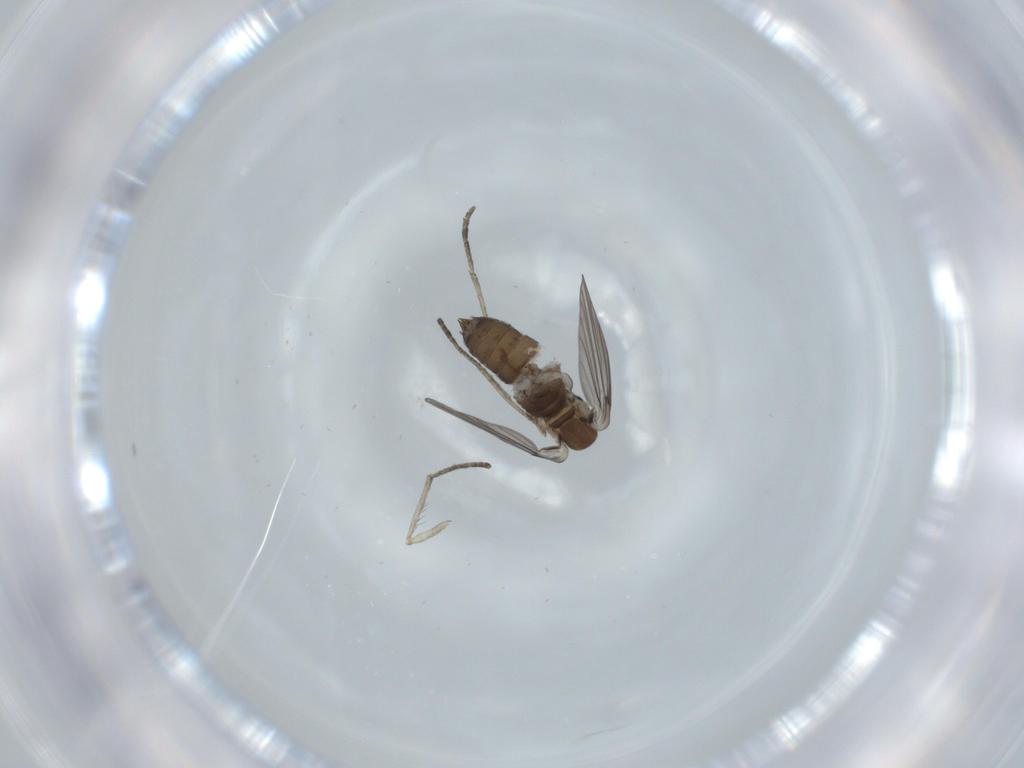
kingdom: Animalia
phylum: Arthropoda
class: Insecta
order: Diptera
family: Psychodidae
